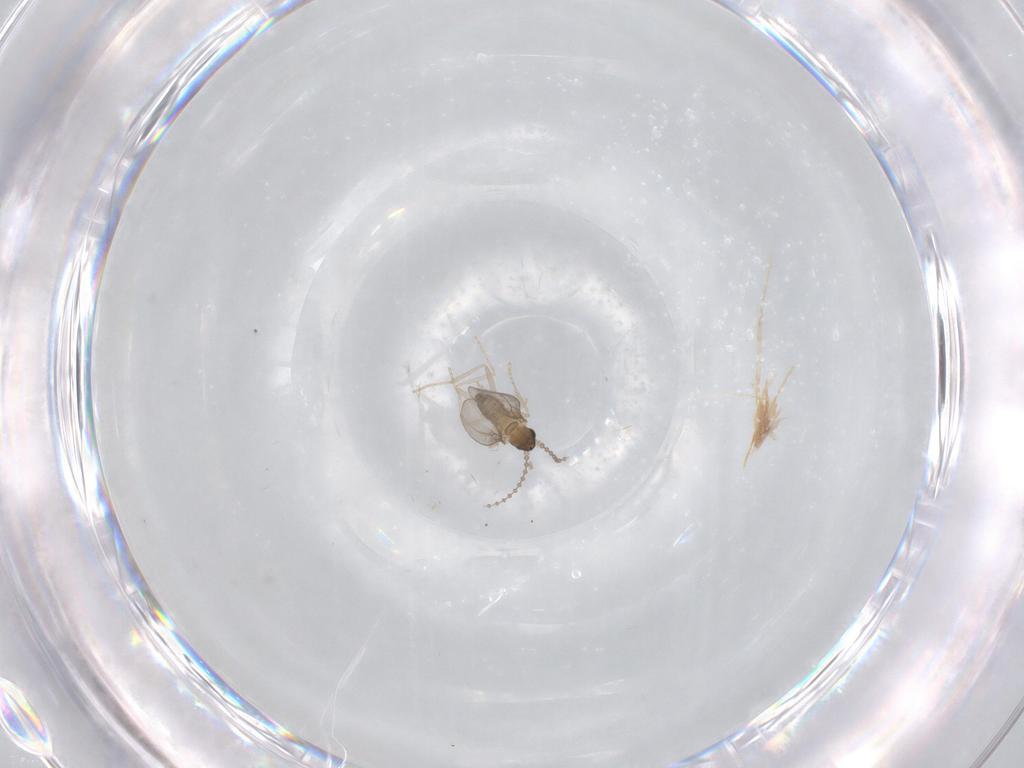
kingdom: Animalia
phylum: Arthropoda
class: Insecta
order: Diptera
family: Cecidomyiidae
